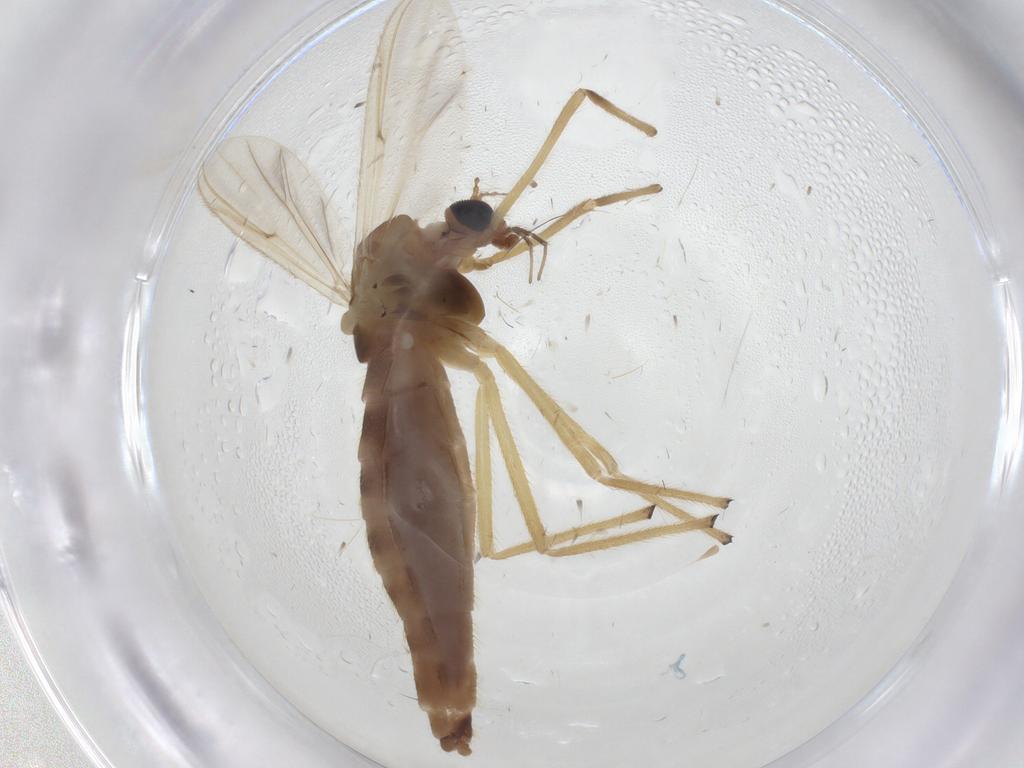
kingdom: Animalia
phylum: Arthropoda
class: Insecta
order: Diptera
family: Chironomidae
